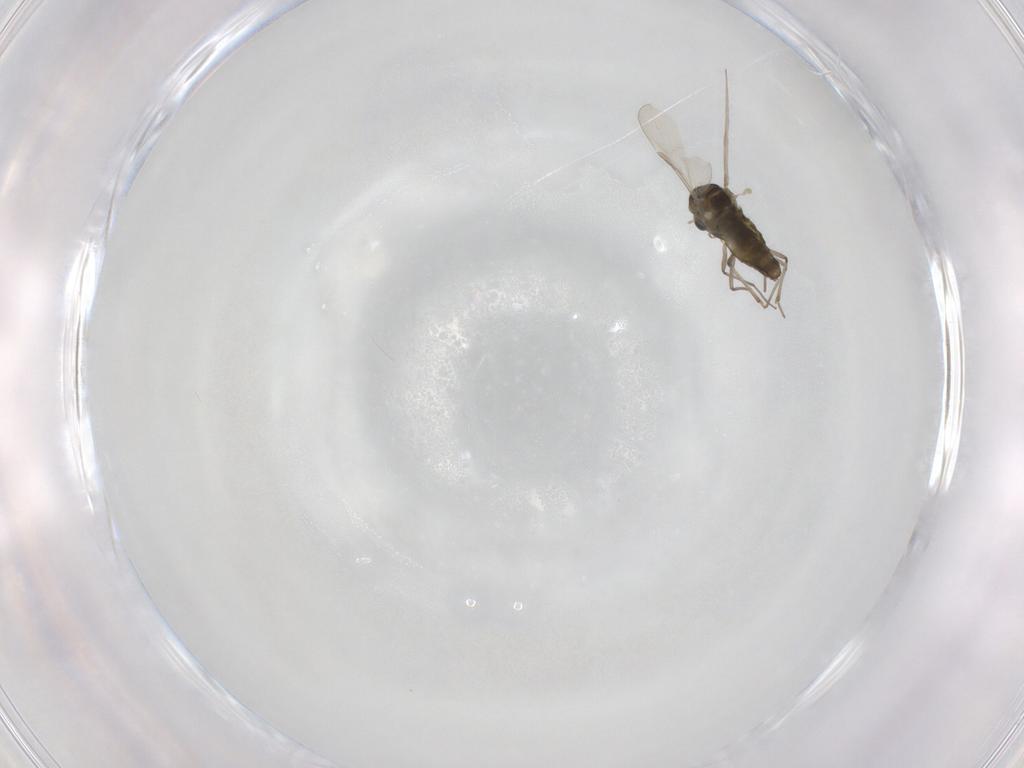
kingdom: Animalia
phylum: Arthropoda
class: Insecta
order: Diptera
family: Chironomidae
